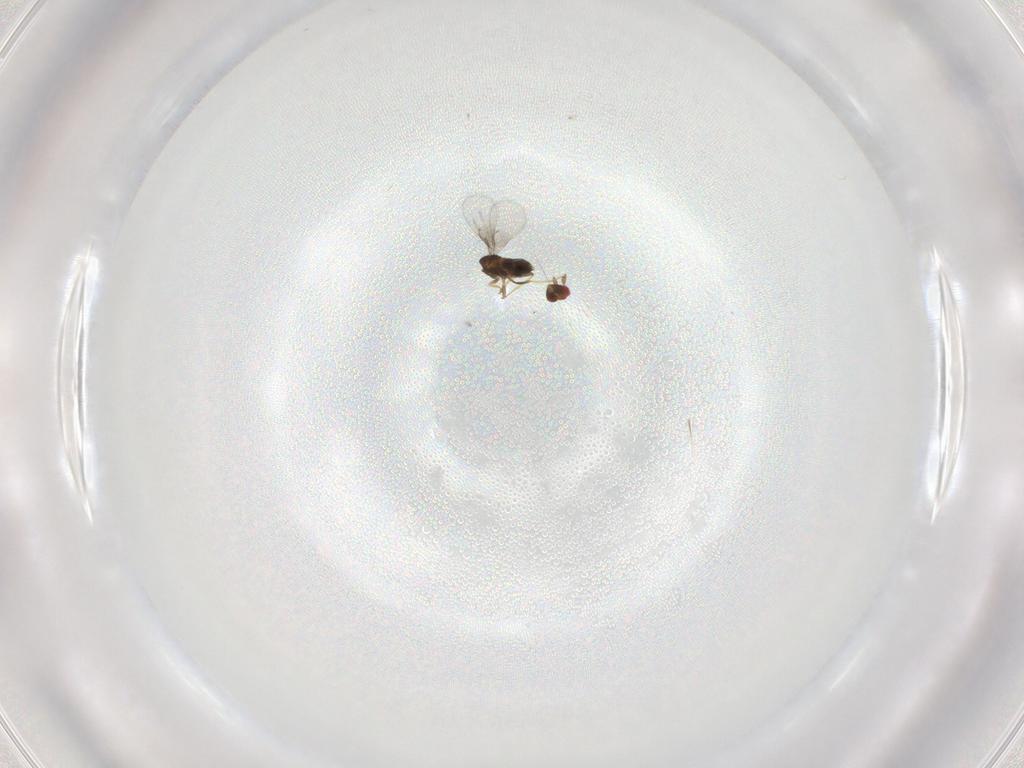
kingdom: Animalia
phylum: Arthropoda
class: Insecta
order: Hymenoptera
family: Trichogrammatidae
